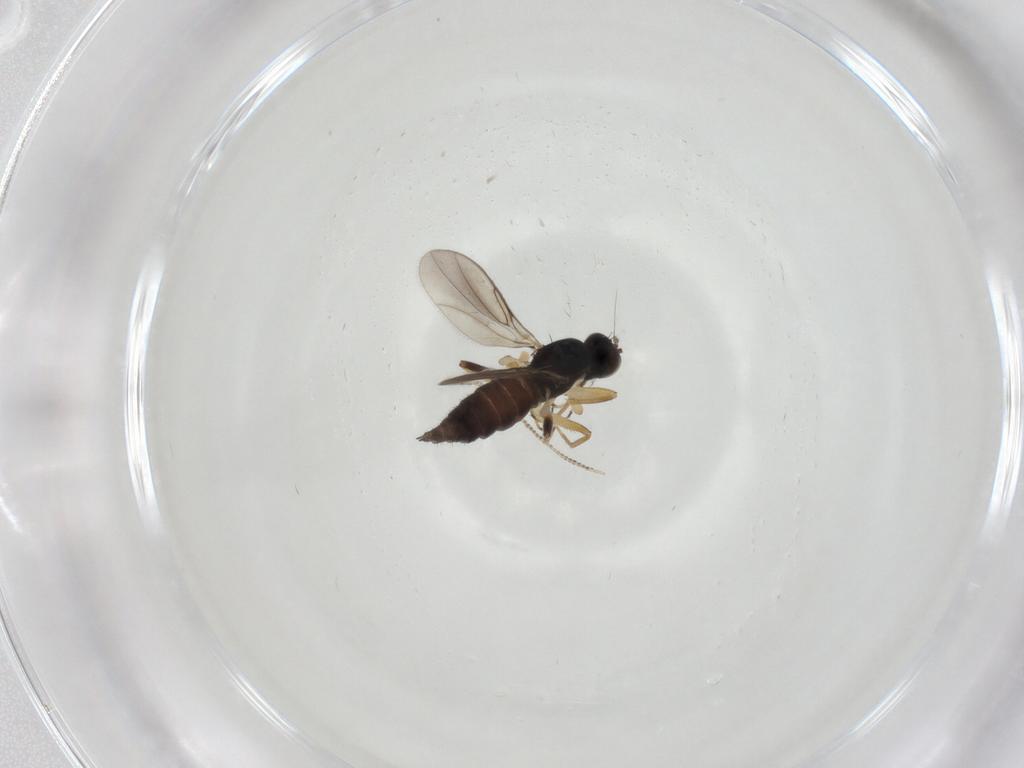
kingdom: Animalia
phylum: Arthropoda
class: Insecta
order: Diptera
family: Hybotidae
